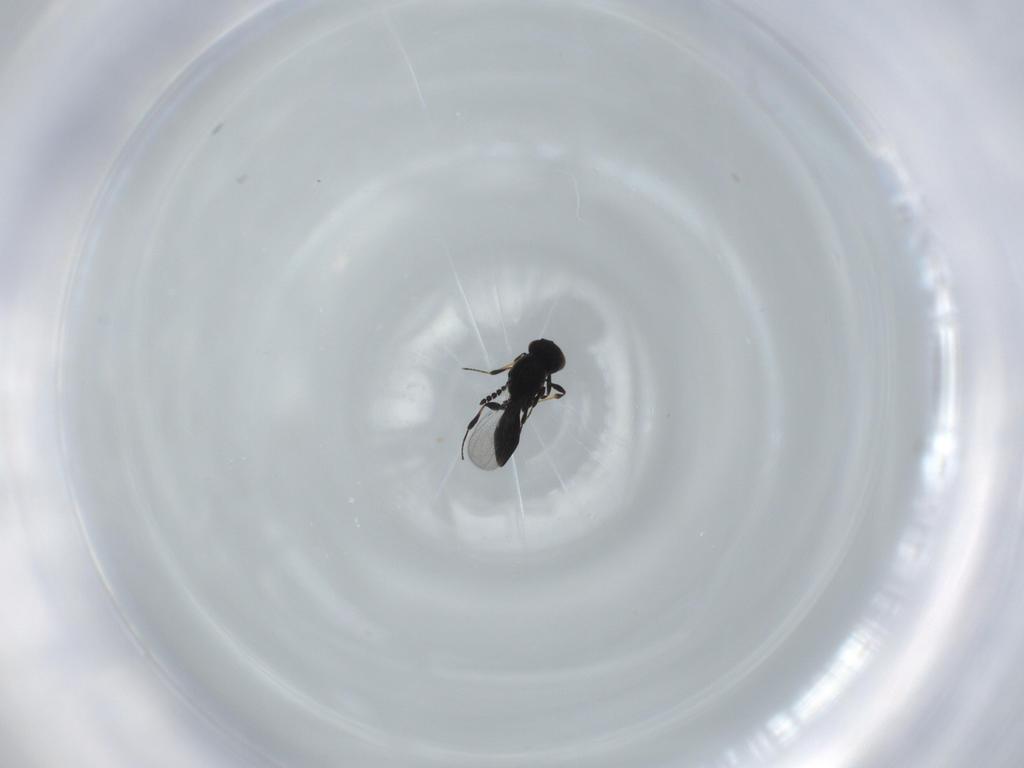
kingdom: Animalia
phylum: Arthropoda
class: Insecta
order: Hymenoptera
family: Platygastridae
